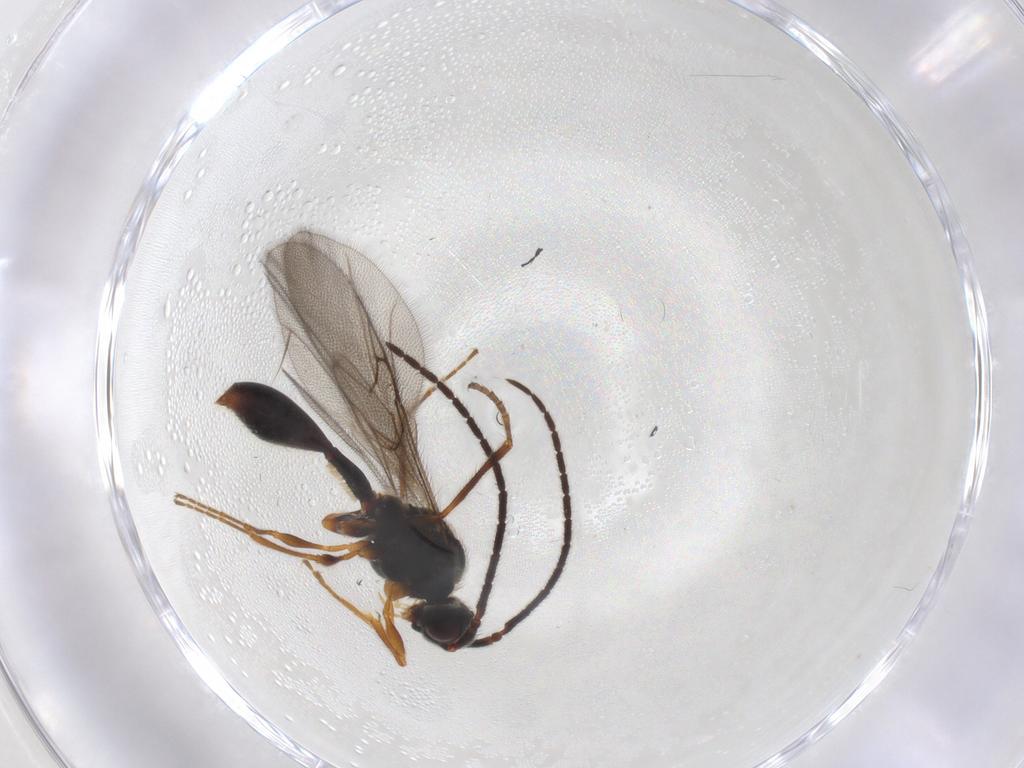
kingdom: Animalia
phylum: Arthropoda
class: Insecta
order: Hymenoptera
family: Diapriidae
